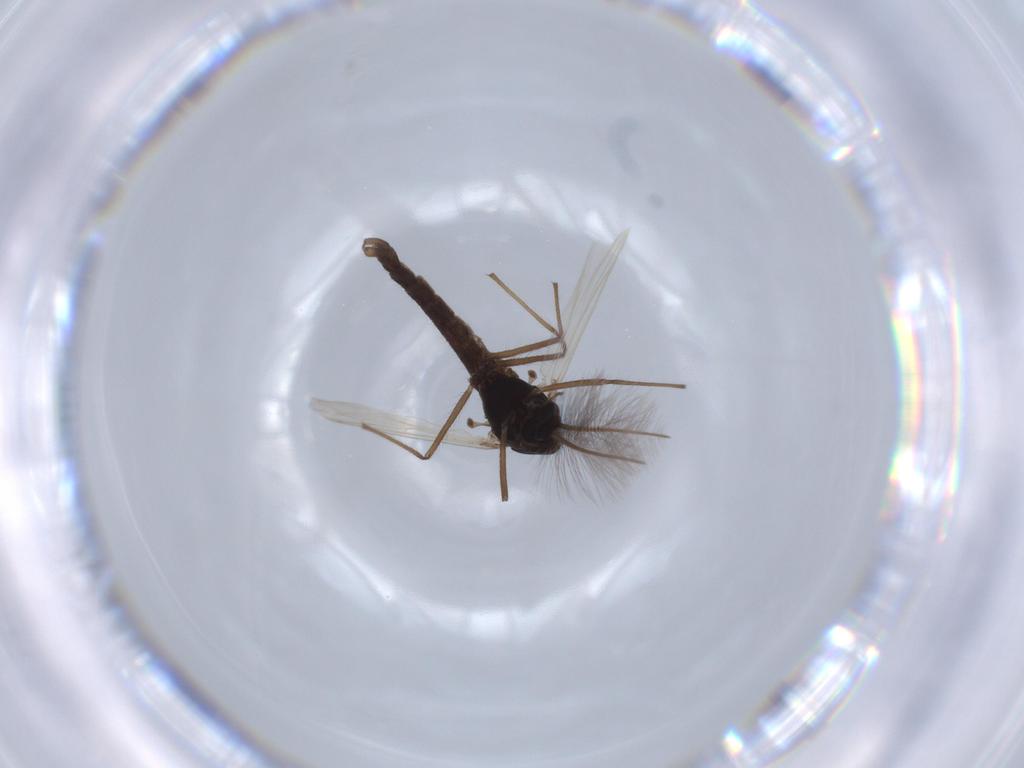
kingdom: Animalia
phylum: Arthropoda
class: Insecta
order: Diptera
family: Chironomidae
